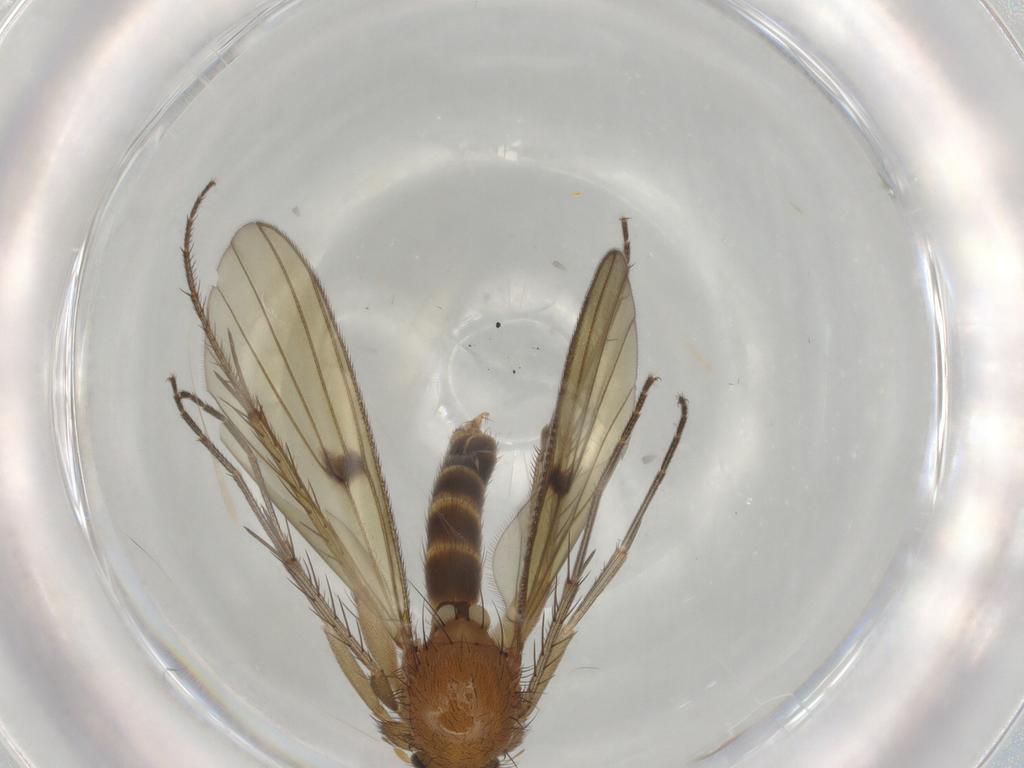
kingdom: Animalia
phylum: Arthropoda
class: Insecta
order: Diptera
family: Mycetophilidae
